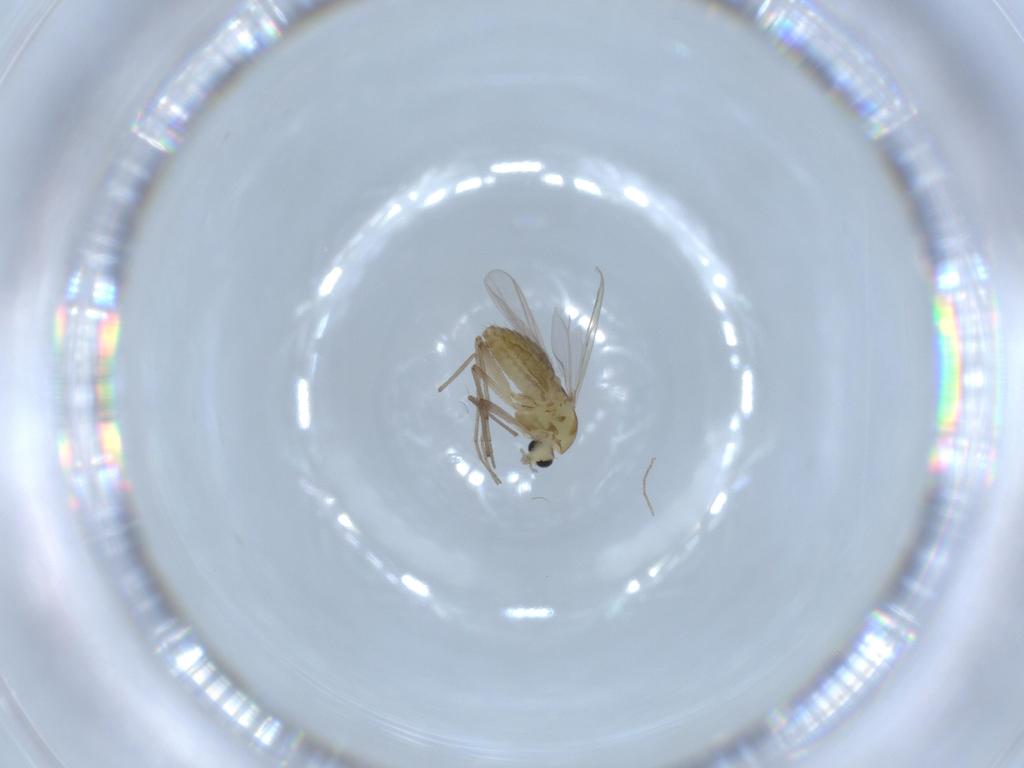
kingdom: Animalia
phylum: Arthropoda
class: Insecta
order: Diptera
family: Chironomidae
